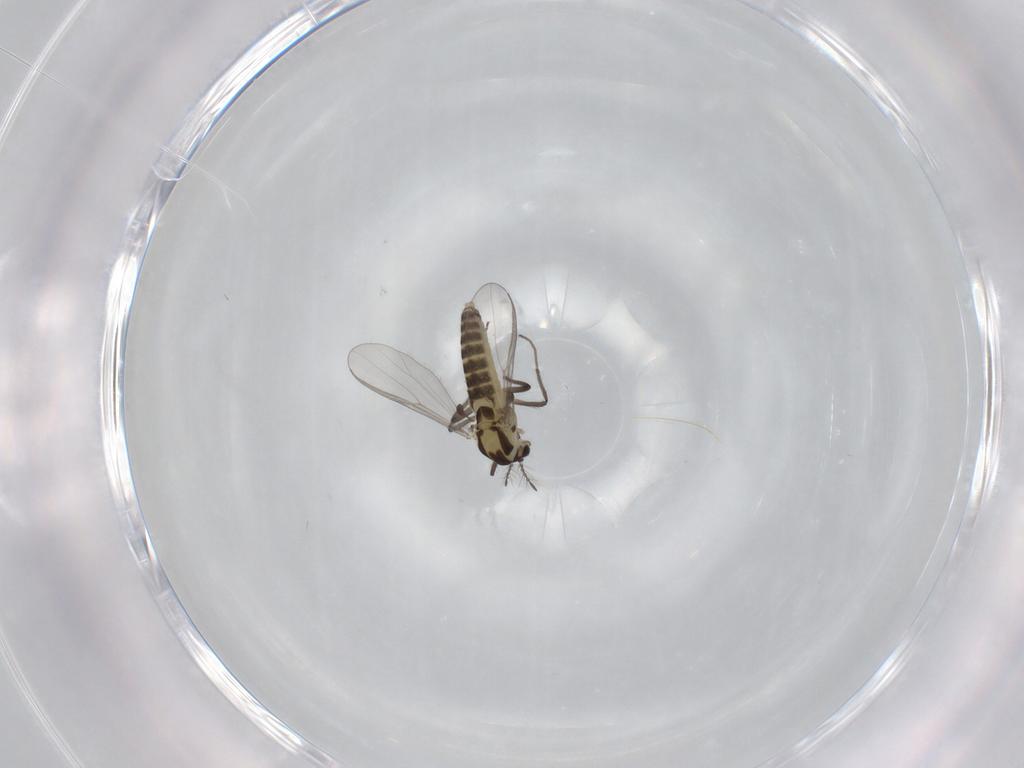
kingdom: Animalia
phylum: Arthropoda
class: Insecta
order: Diptera
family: Chironomidae
